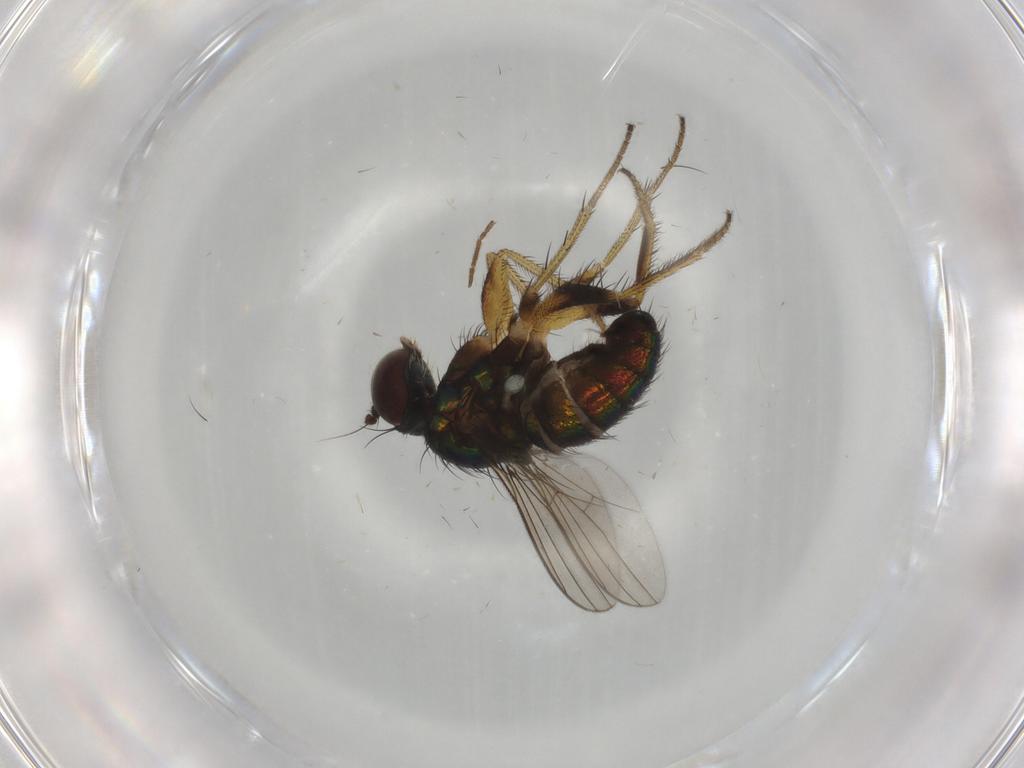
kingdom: Animalia
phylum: Arthropoda
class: Insecta
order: Diptera
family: Dolichopodidae
